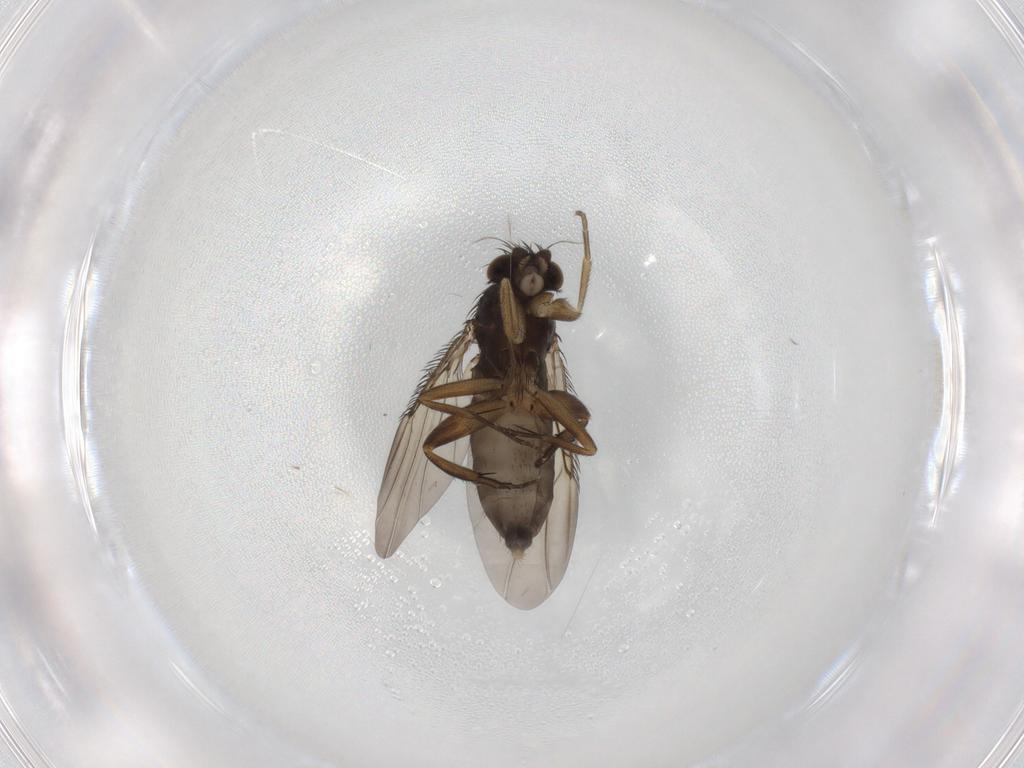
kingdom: Animalia
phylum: Arthropoda
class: Insecta
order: Diptera
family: Phoridae
